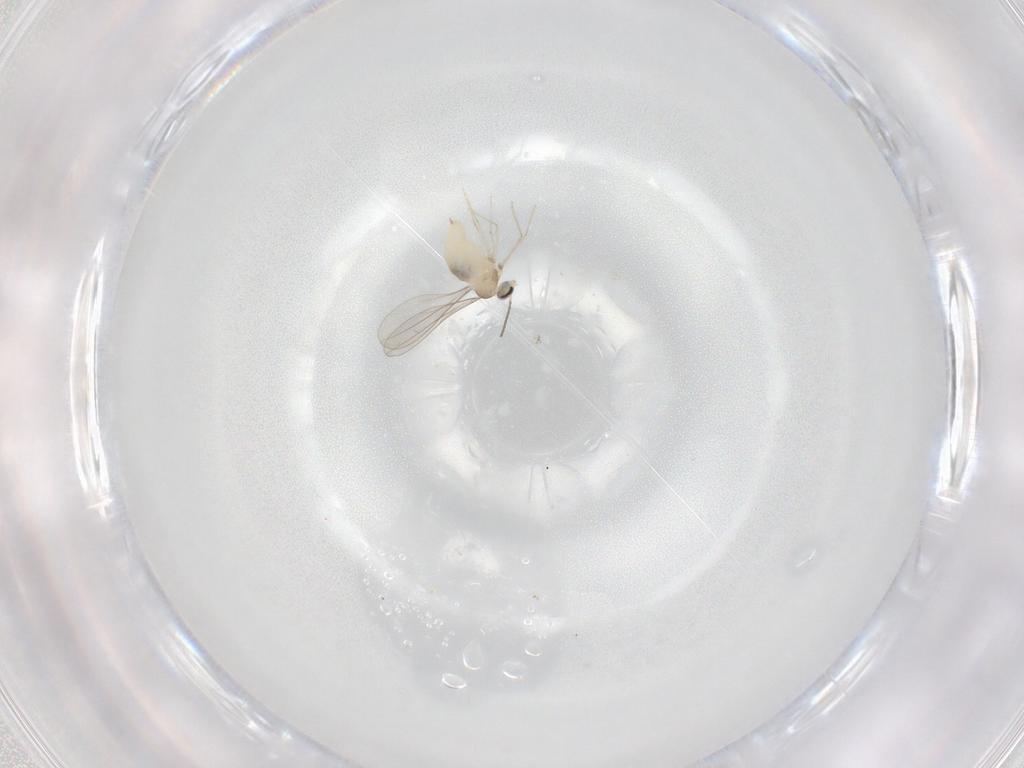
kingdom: Animalia
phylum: Arthropoda
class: Insecta
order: Diptera
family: Cecidomyiidae
